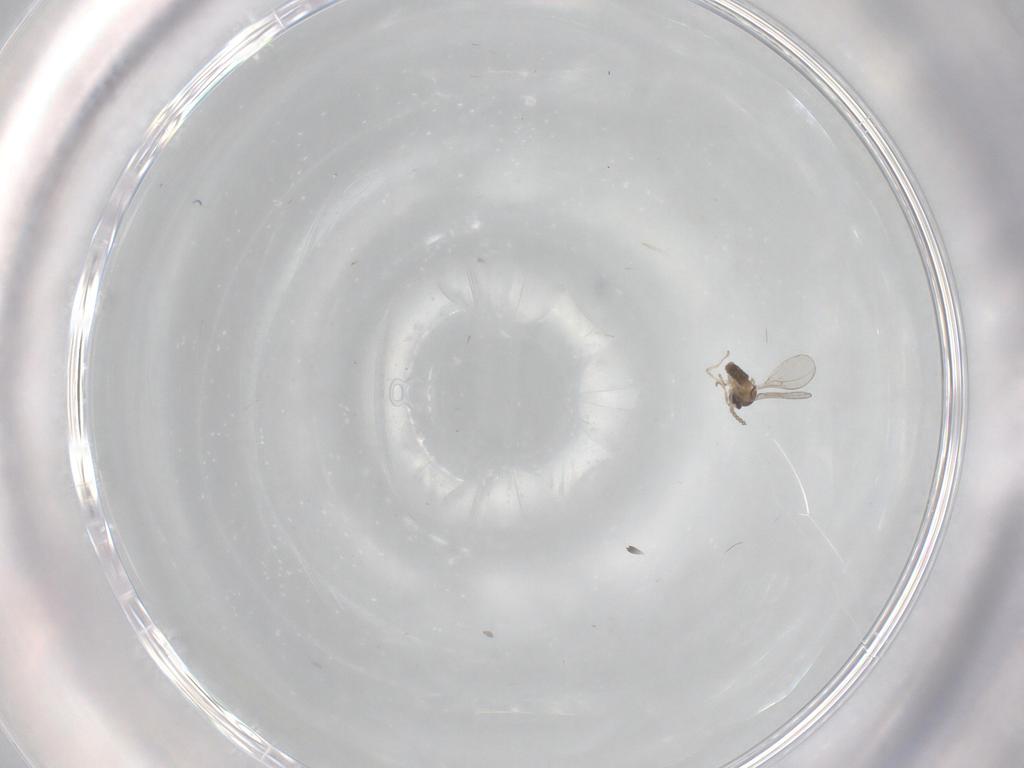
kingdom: Animalia
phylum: Arthropoda
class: Insecta
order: Diptera
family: Cecidomyiidae
